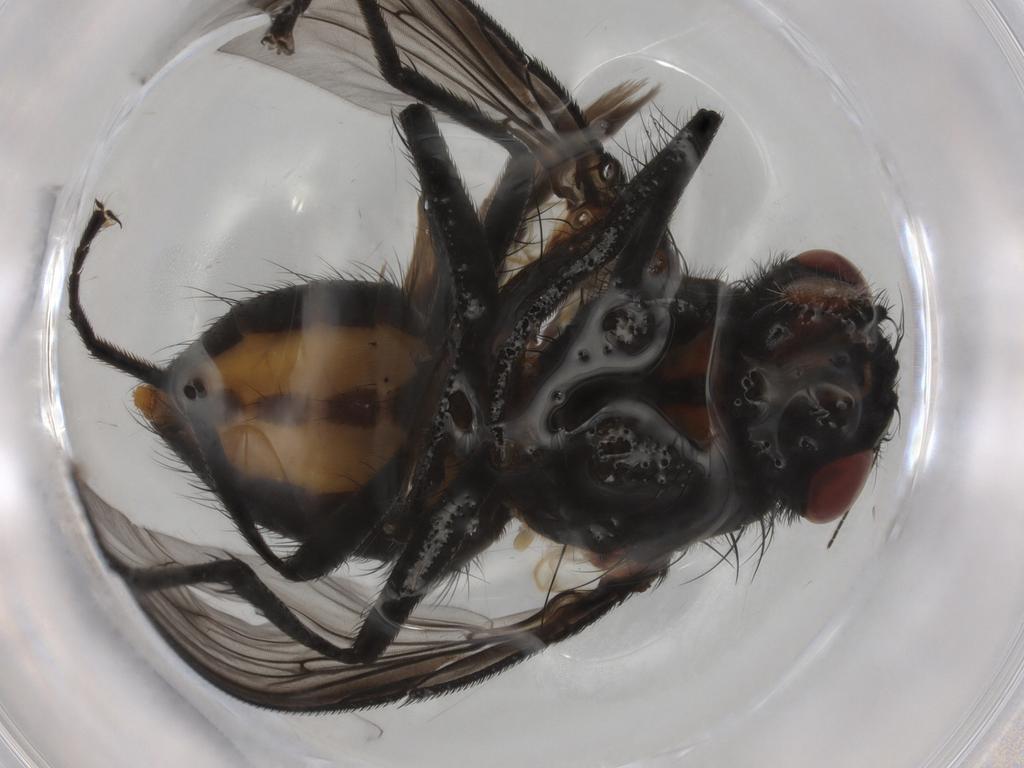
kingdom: Animalia
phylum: Arthropoda
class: Insecta
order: Diptera
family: Muscidae
